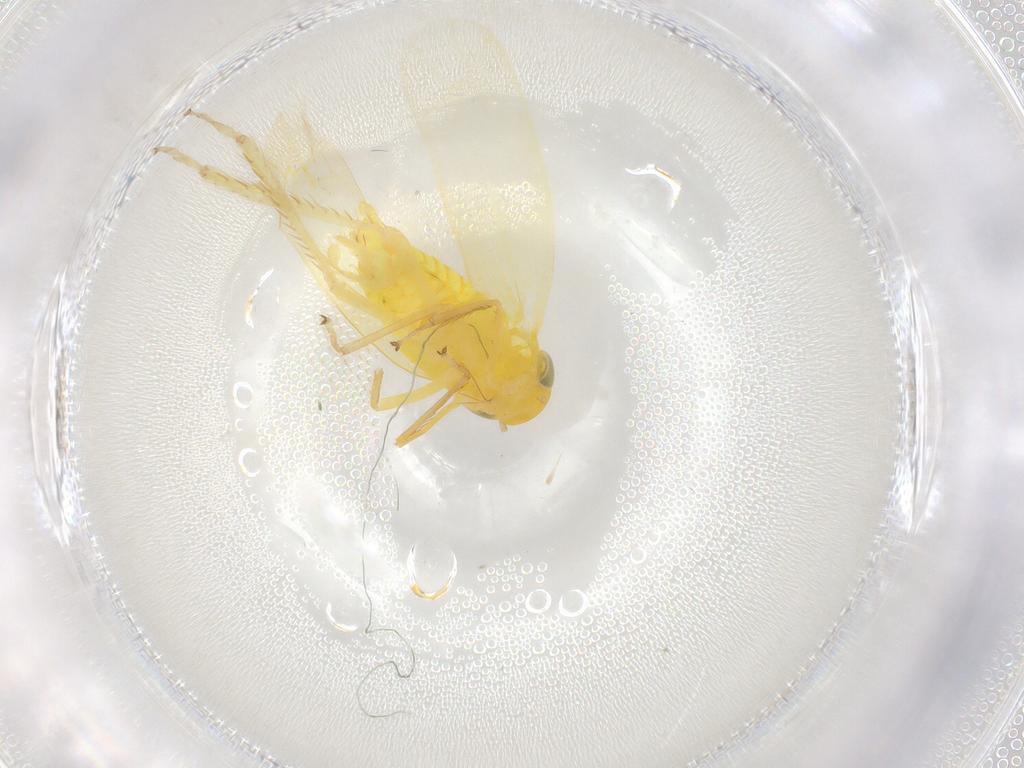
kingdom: Animalia
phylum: Arthropoda
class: Insecta
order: Hemiptera
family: Cicadellidae
